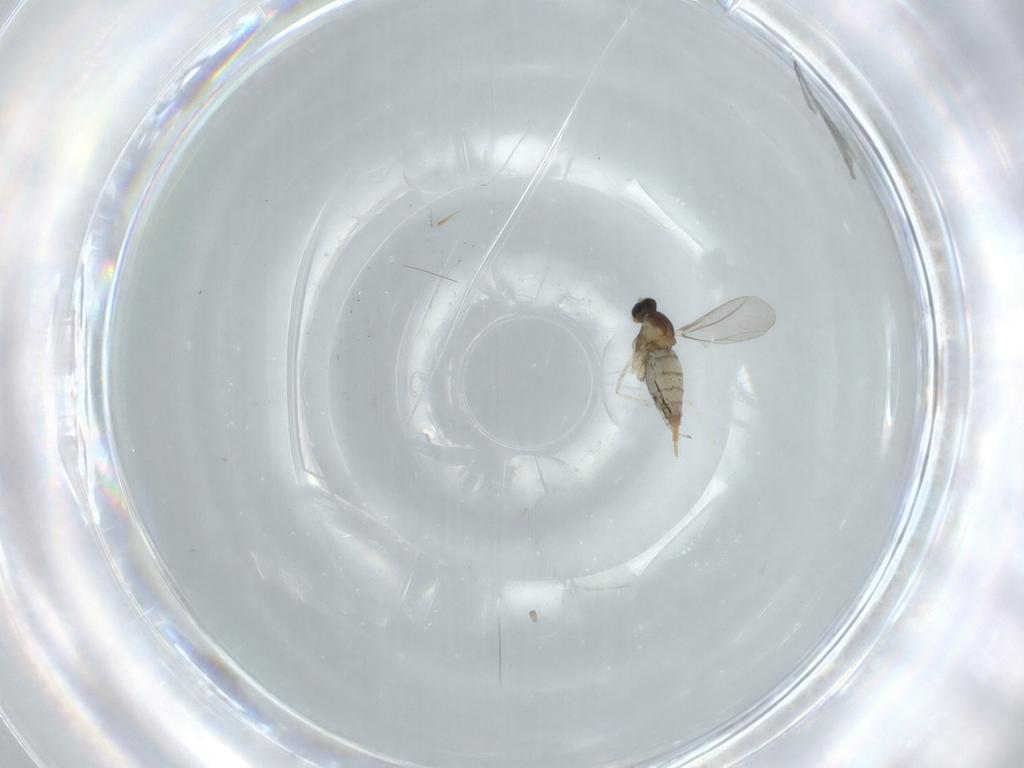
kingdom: Animalia
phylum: Arthropoda
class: Insecta
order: Diptera
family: Cecidomyiidae
